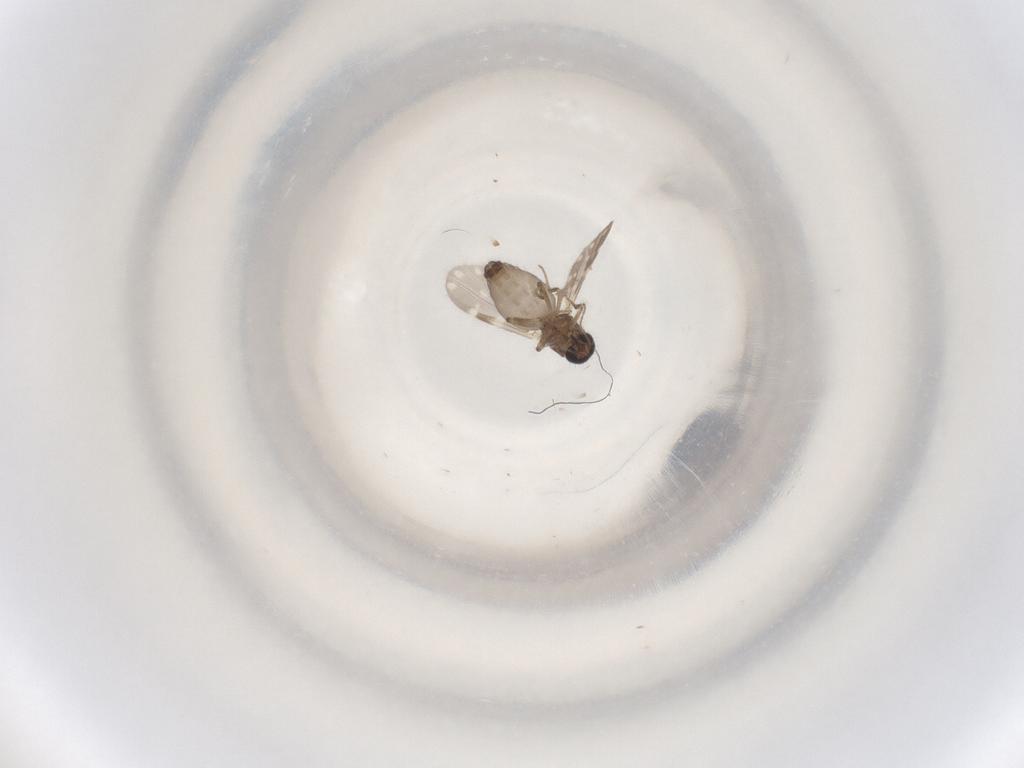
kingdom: Animalia
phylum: Arthropoda
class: Insecta
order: Diptera
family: Ceratopogonidae
